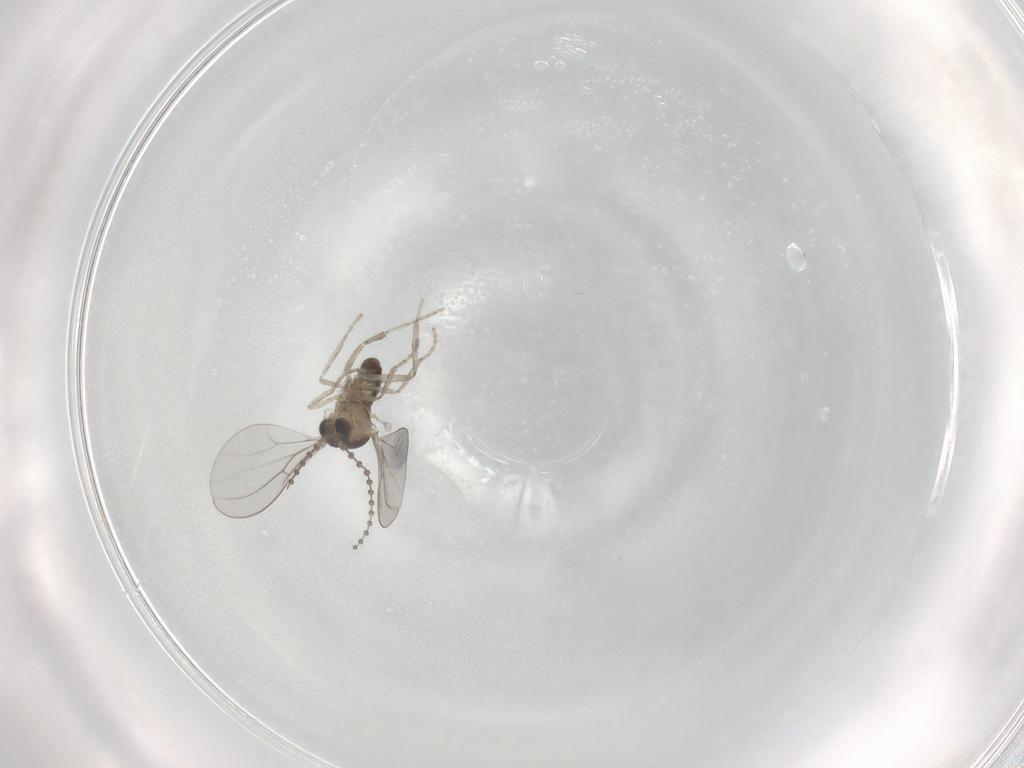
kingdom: Animalia
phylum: Arthropoda
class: Insecta
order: Diptera
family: Cecidomyiidae
